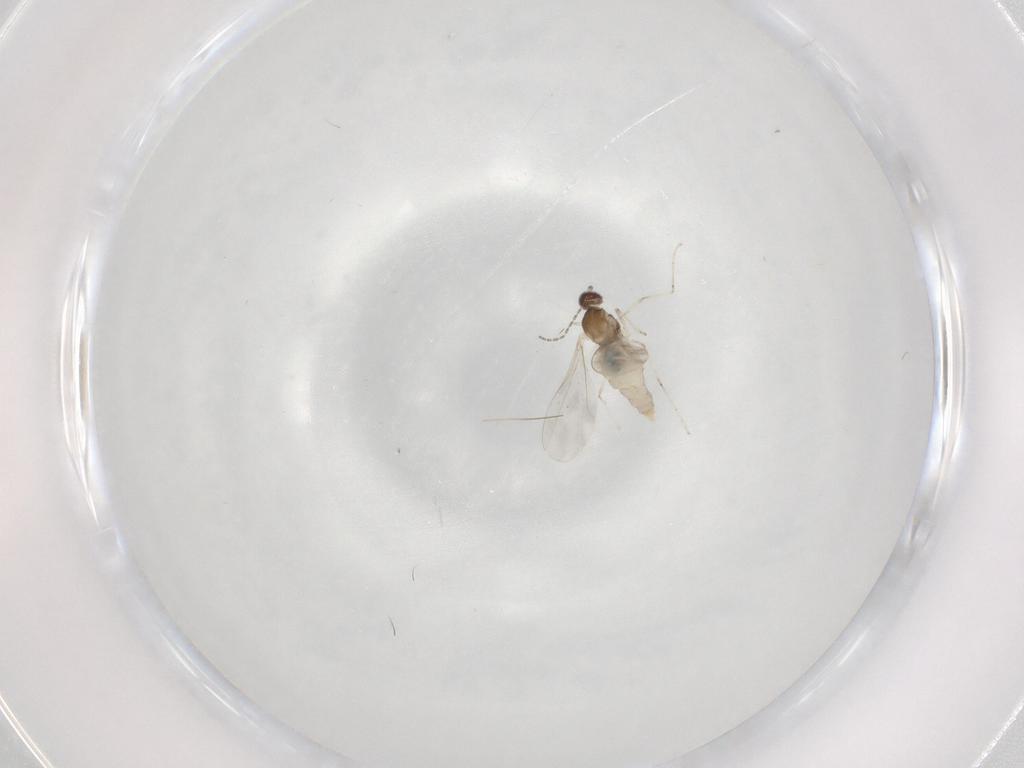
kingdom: Animalia
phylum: Arthropoda
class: Insecta
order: Diptera
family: Cecidomyiidae
